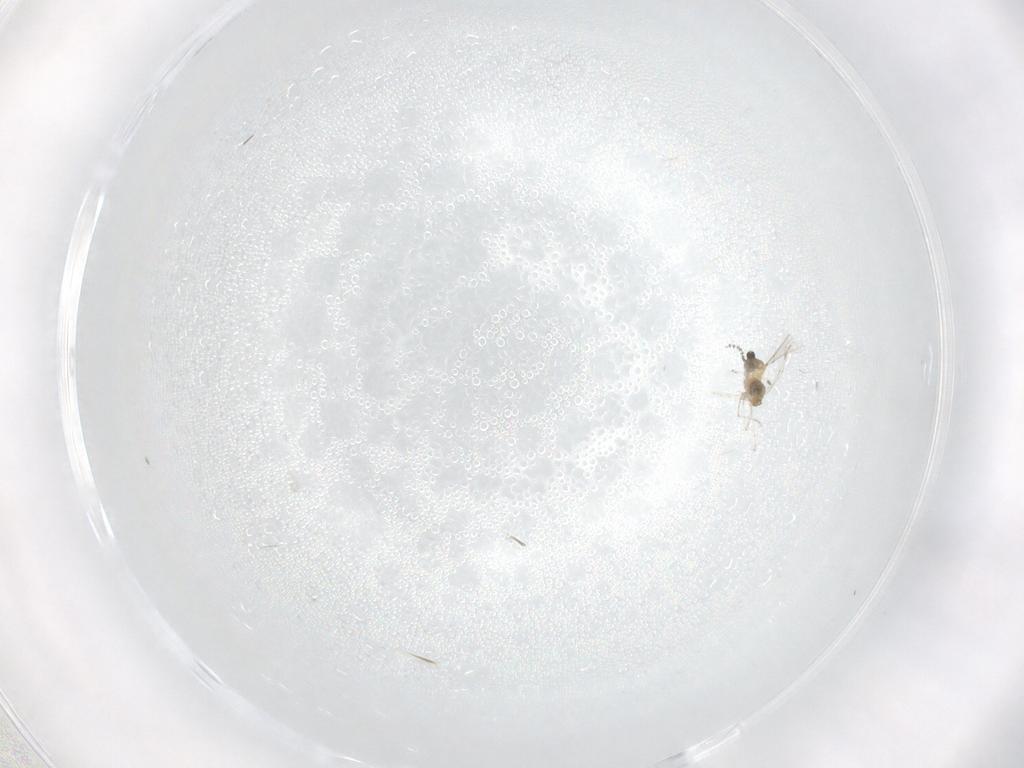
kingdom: Animalia
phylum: Arthropoda
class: Insecta
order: Diptera
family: Cecidomyiidae
